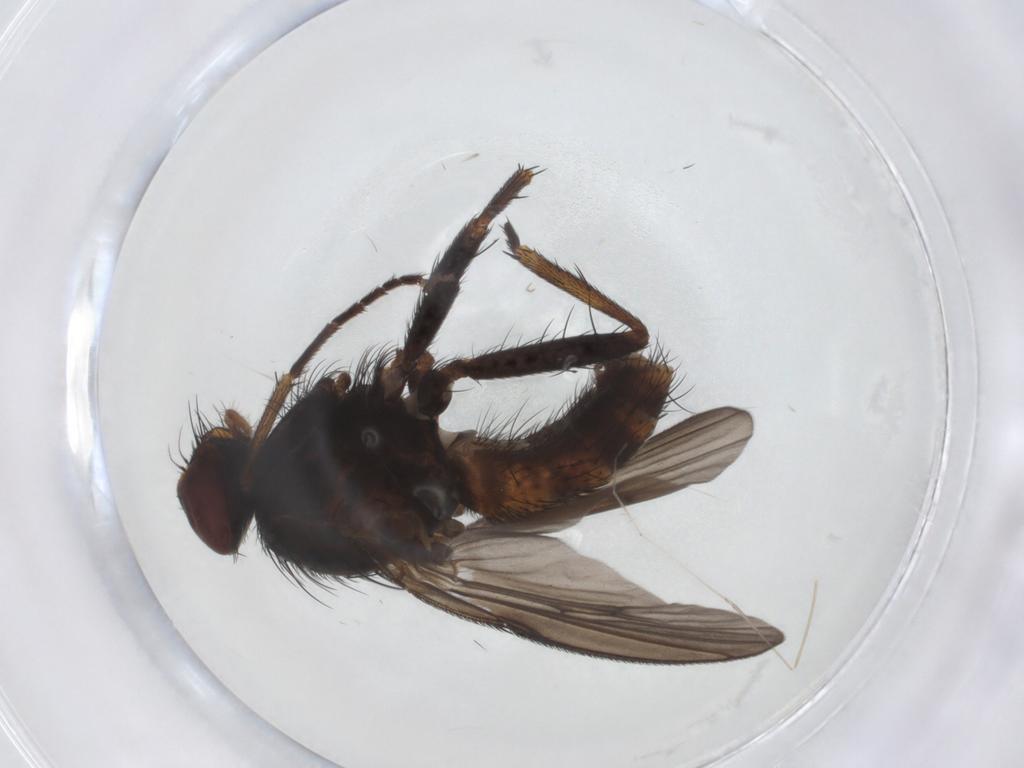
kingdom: Animalia
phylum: Arthropoda
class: Insecta
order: Diptera
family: Muscidae
